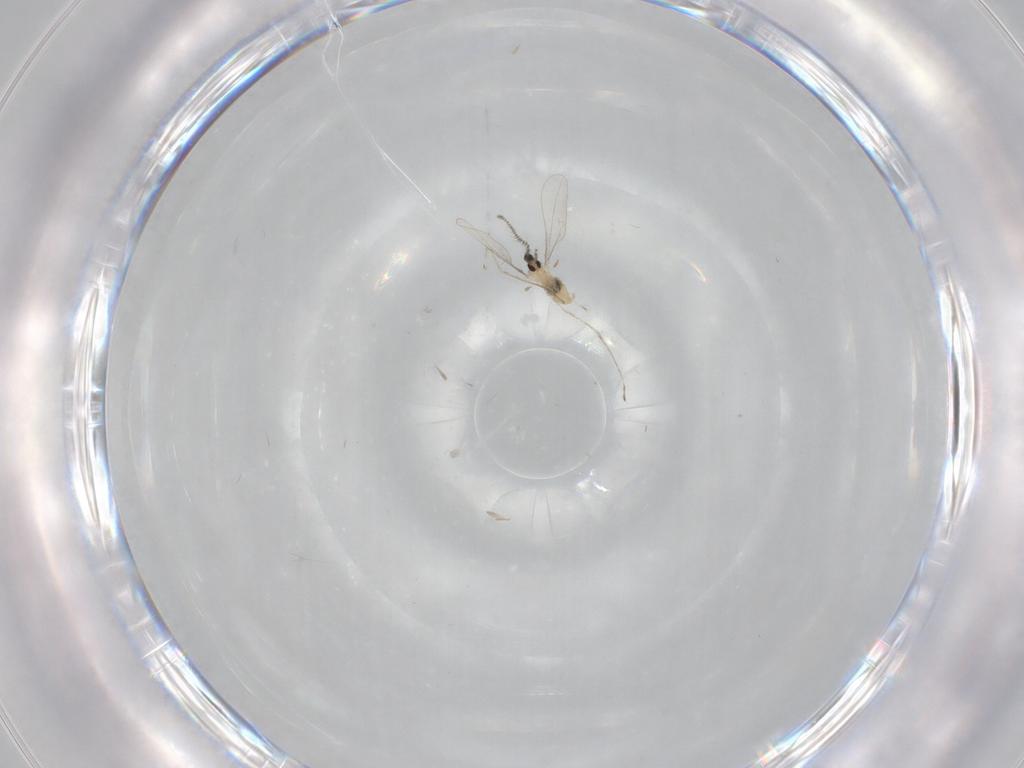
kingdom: Animalia
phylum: Arthropoda
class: Insecta
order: Diptera
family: Cecidomyiidae
